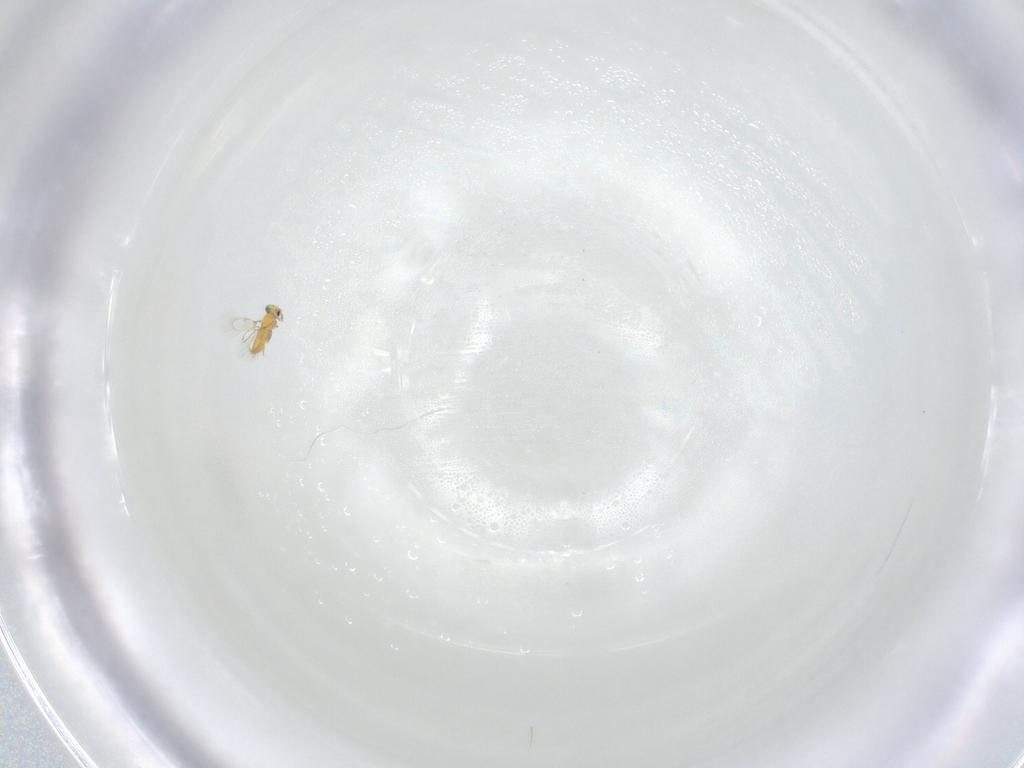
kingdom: Animalia
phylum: Arthropoda
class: Insecta
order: Hymenoptera
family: Trichogrammatidae
